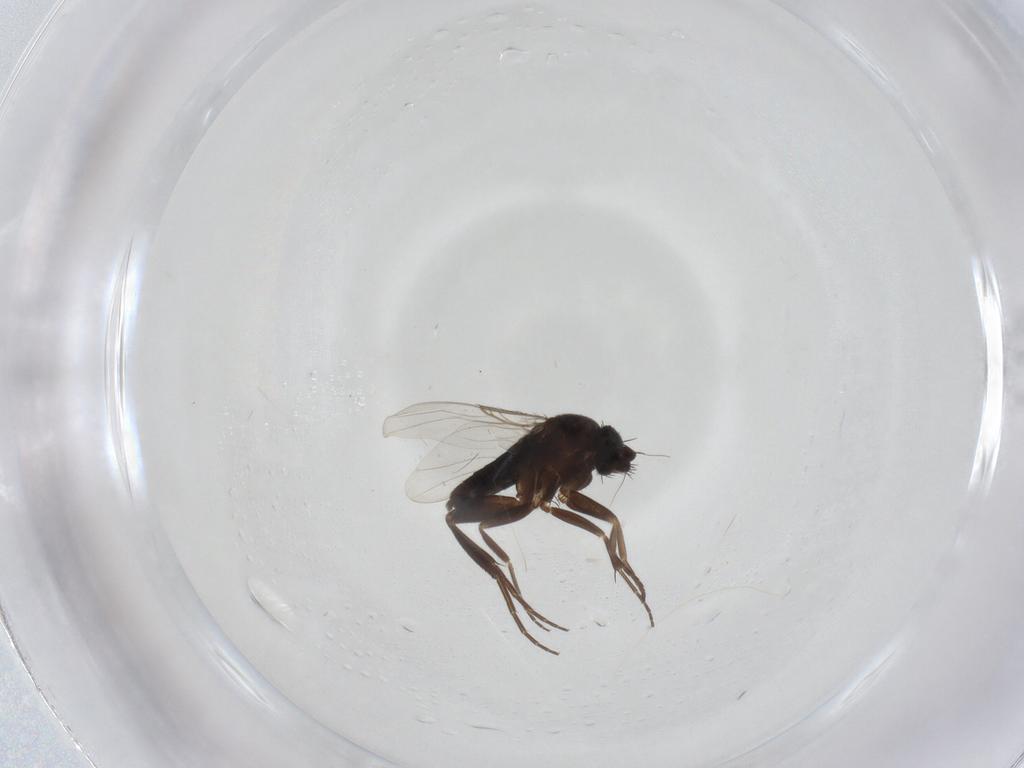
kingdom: Animalia
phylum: Arthropoda
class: Insecta
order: Diptera
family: Phoridae
